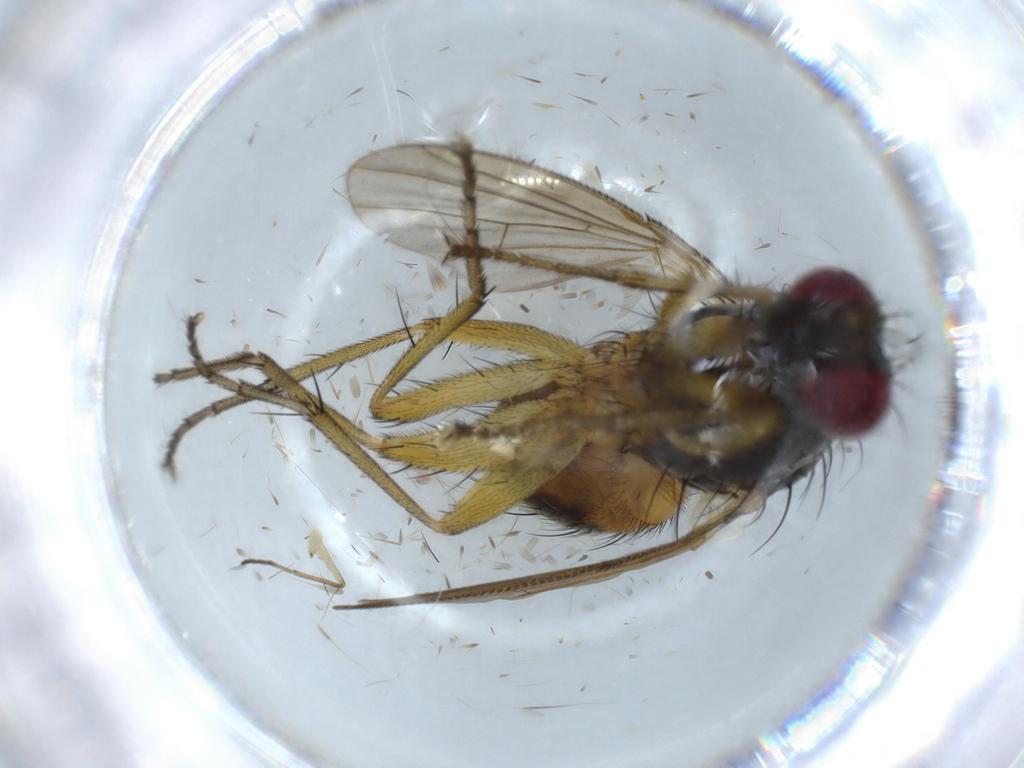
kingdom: Animalia
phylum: Arthropoda
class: Insecta
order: Diptera
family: Muscidae
